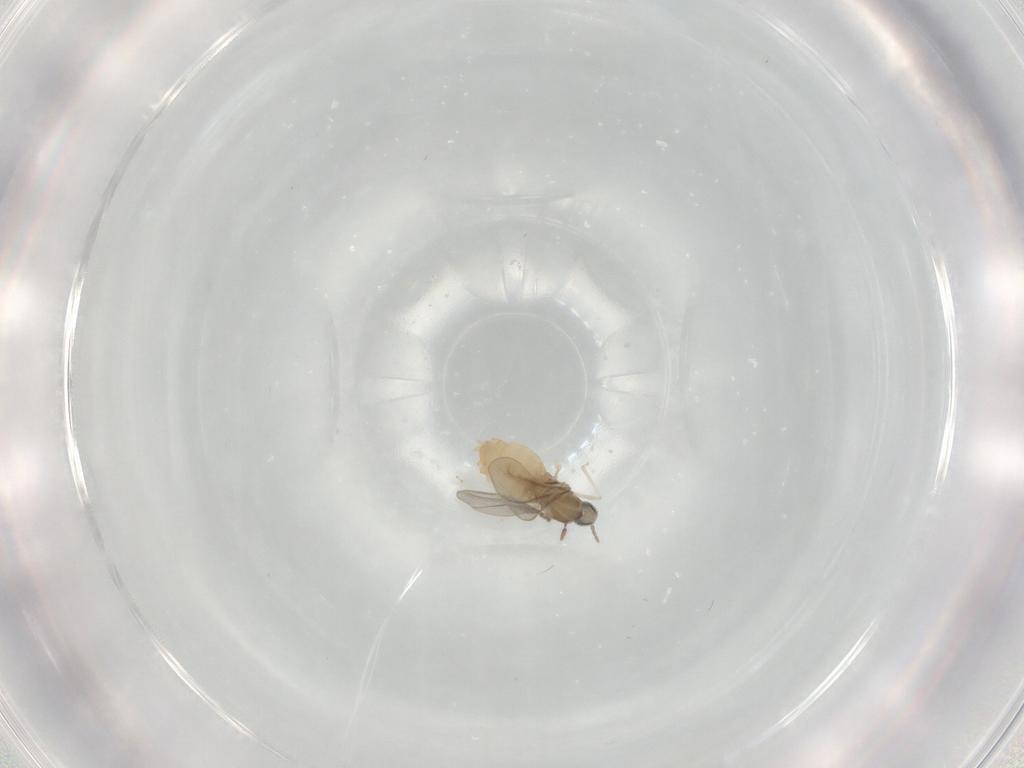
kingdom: Animalia
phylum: Arthropoda
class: Insecta
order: Diptera
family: Cecidomyiidae
